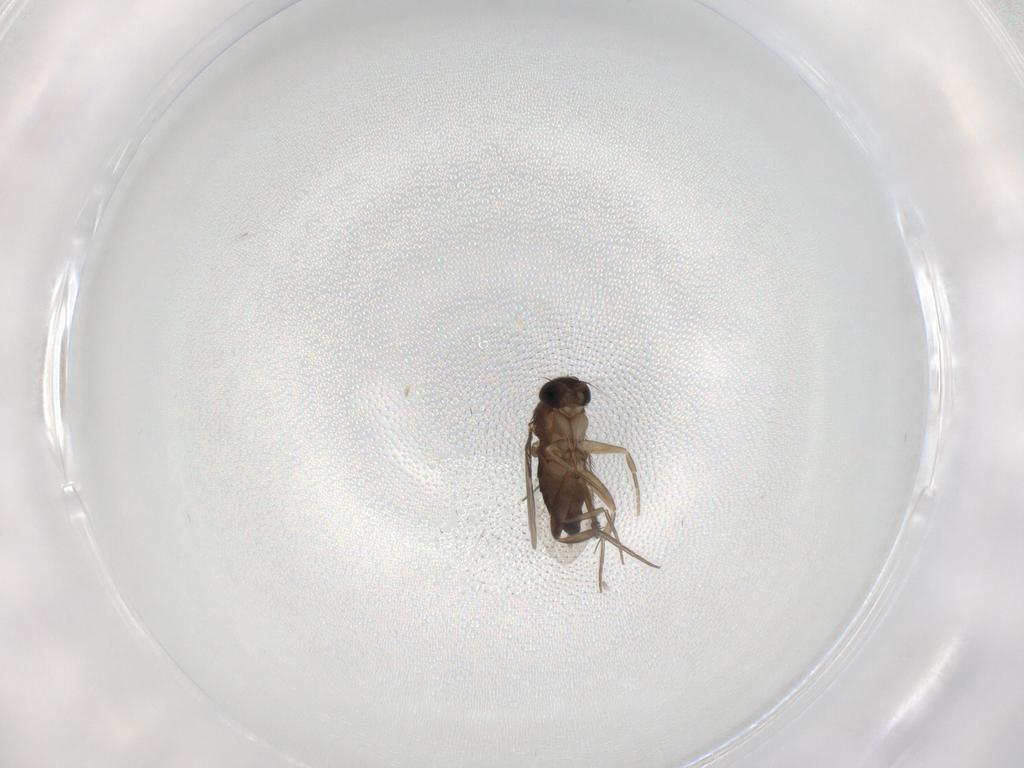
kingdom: Animalia
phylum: Arthropoda
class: Insecta
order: Diptera
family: Phoridae
